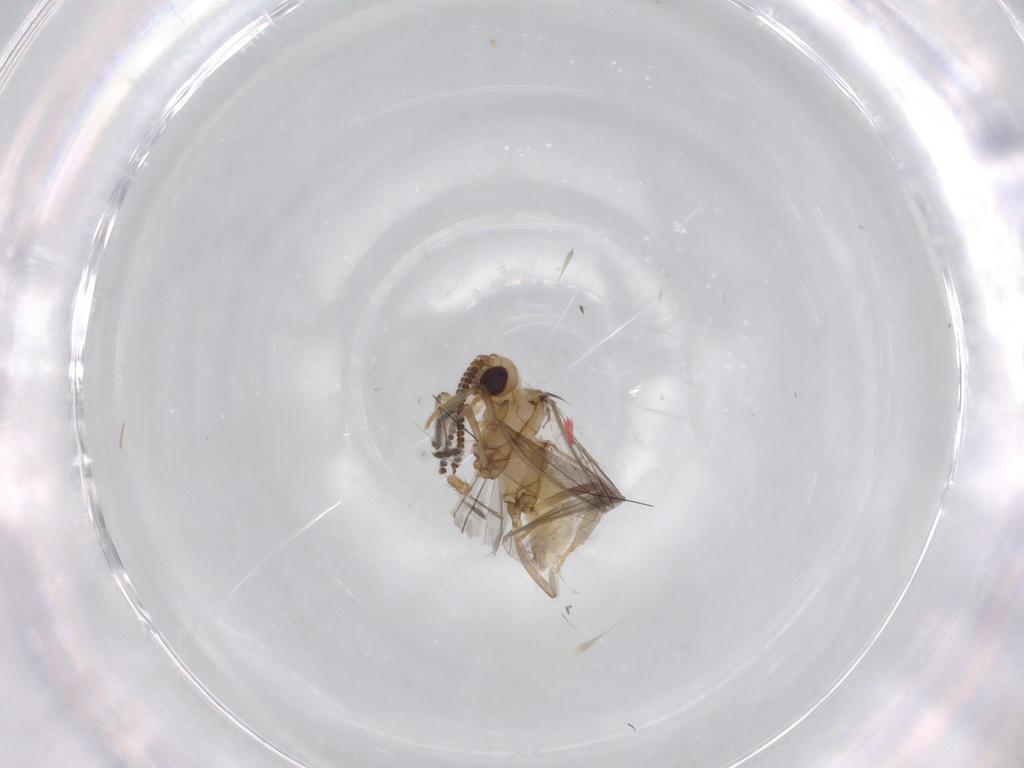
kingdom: Animalia
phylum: Arthropoda
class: Insecta
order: Neuroptera
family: Coniopterygidae
